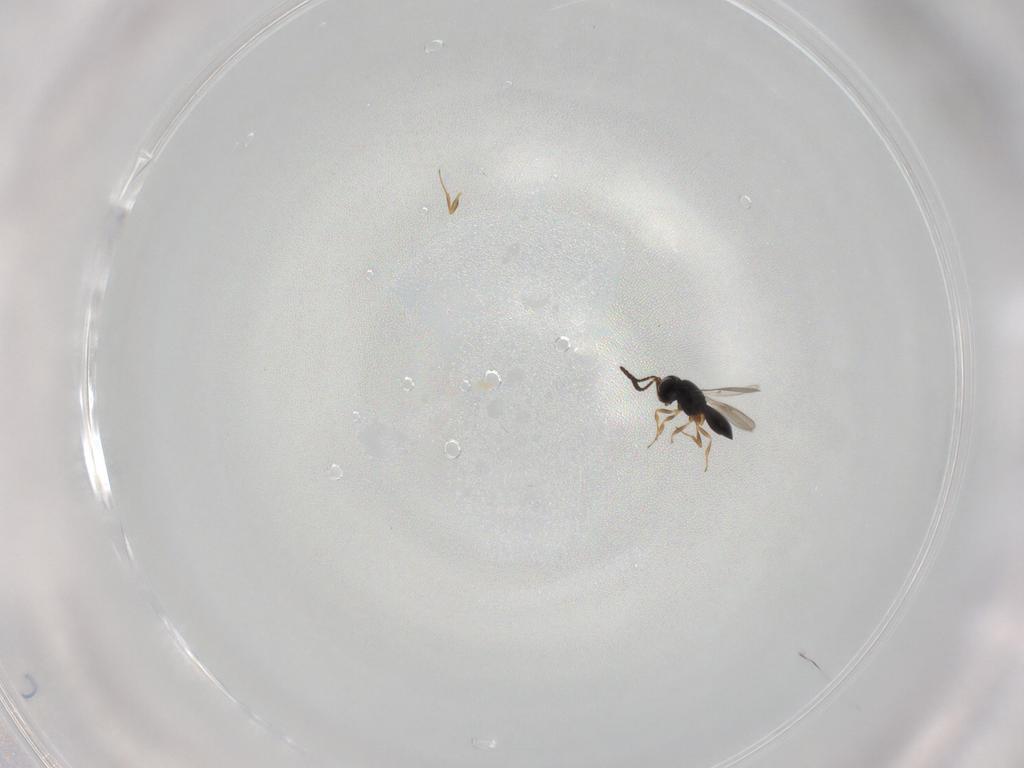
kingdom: Animalia
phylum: Arthropoda
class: Insecta
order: Hymenoptera
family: Scelionidae
